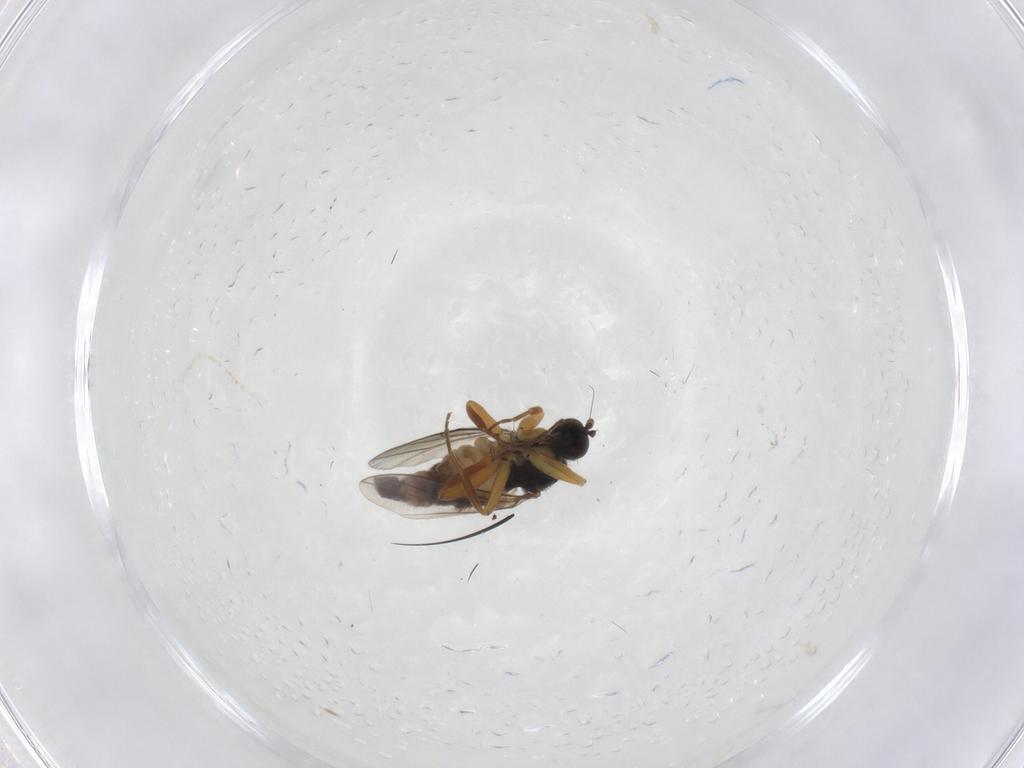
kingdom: Animalia
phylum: Arthropoda
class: Insecta
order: Diptera
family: Hybotidae
